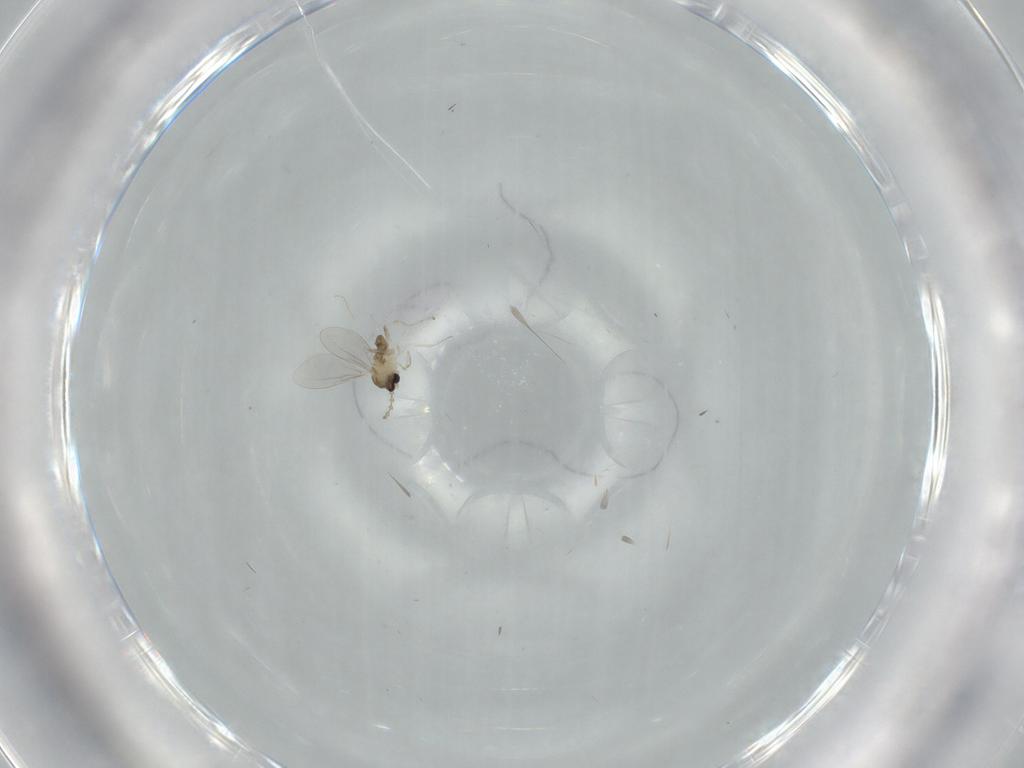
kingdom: Animalia
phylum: Arthropoda
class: Insecta
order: Diptera
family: Cecidomyiidae
